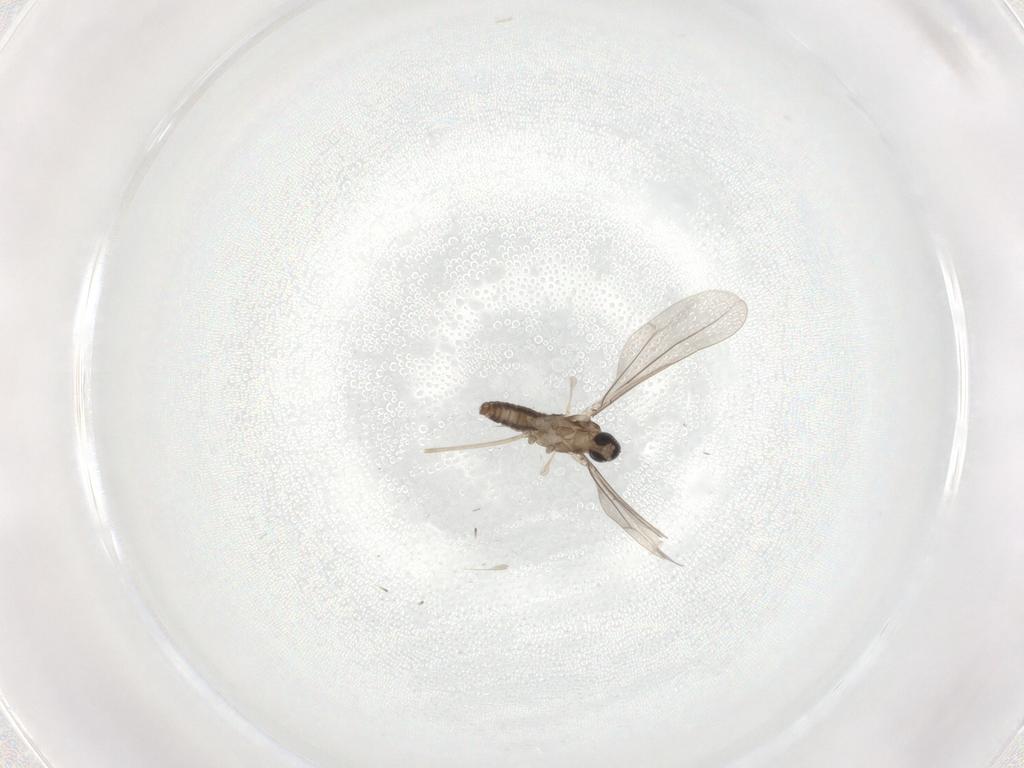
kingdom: Animalia
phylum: Arthropoda
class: Insecta
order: Diptera
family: Cecidomyiidae
